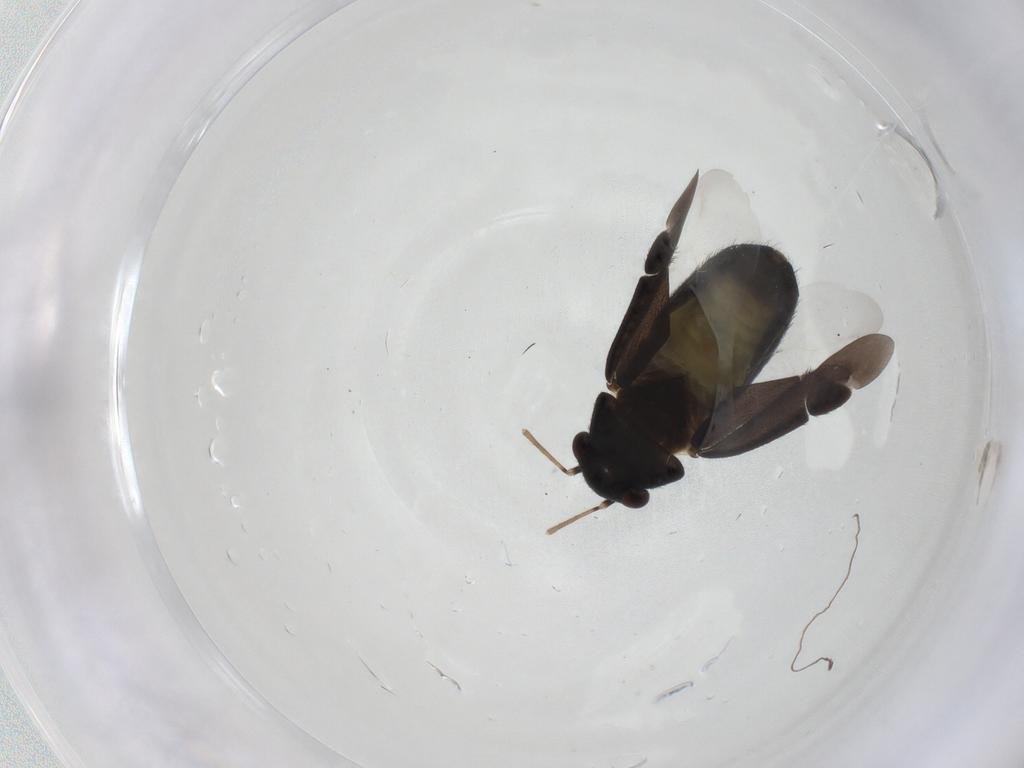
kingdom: Animalia
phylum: Arthropoda
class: Insecta
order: Hemiptera
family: Miridae
